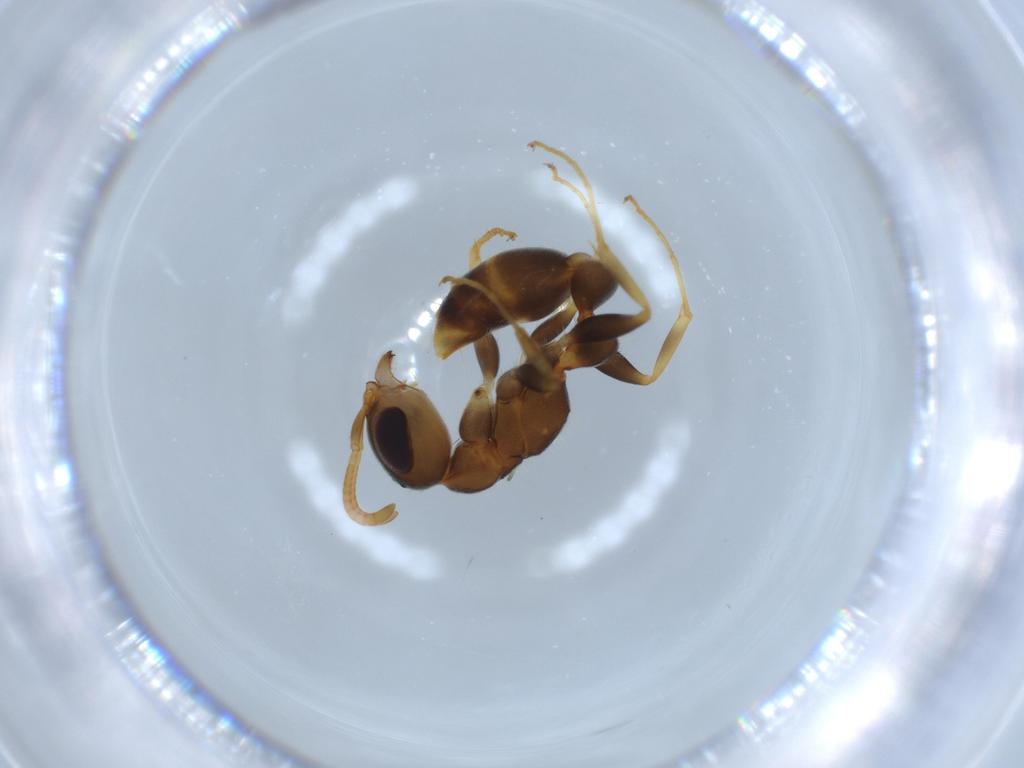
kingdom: Animalia
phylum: Arthropoda
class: Insecta
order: Hymenoptera
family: Formicidae
